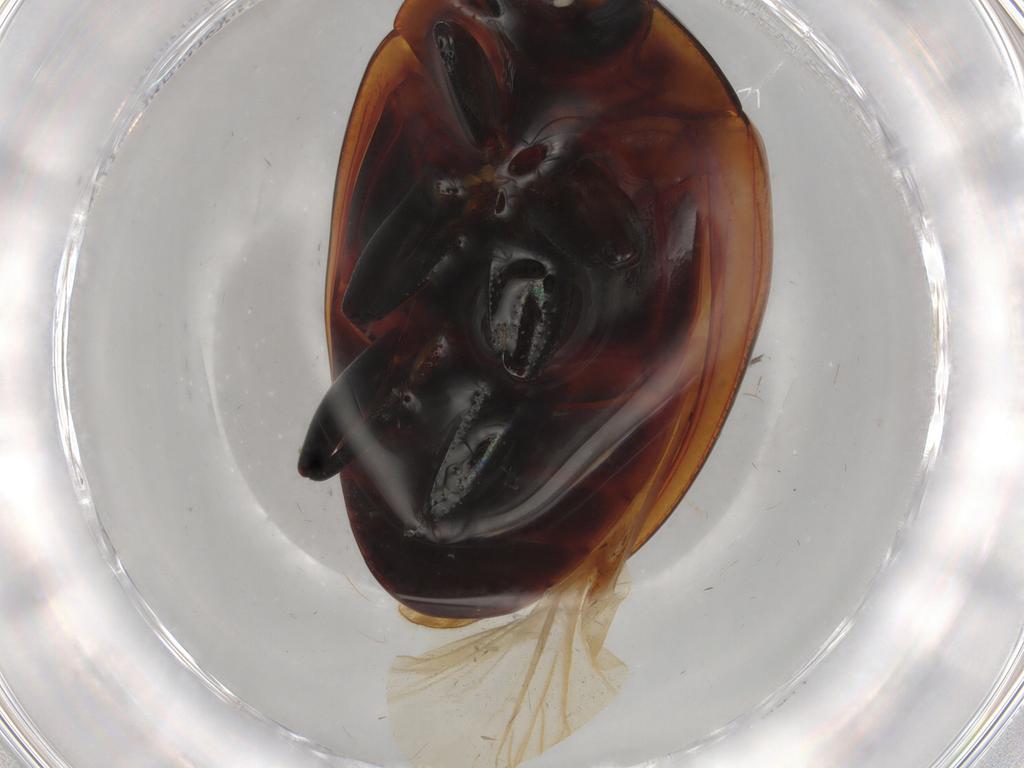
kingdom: Animalia
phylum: Arthropoda
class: Insecta
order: Coleoptera
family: Zopheridae
